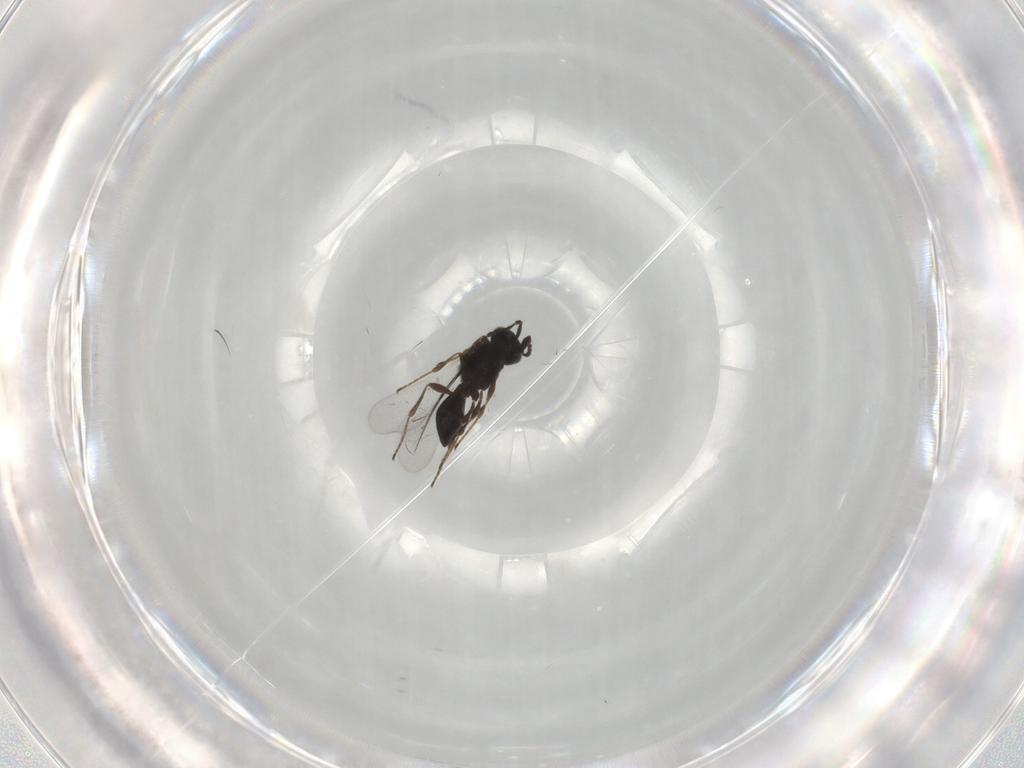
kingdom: Animalia
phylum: Arthropoda
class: Insecta
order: Hymenoptera
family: Platygastridae
